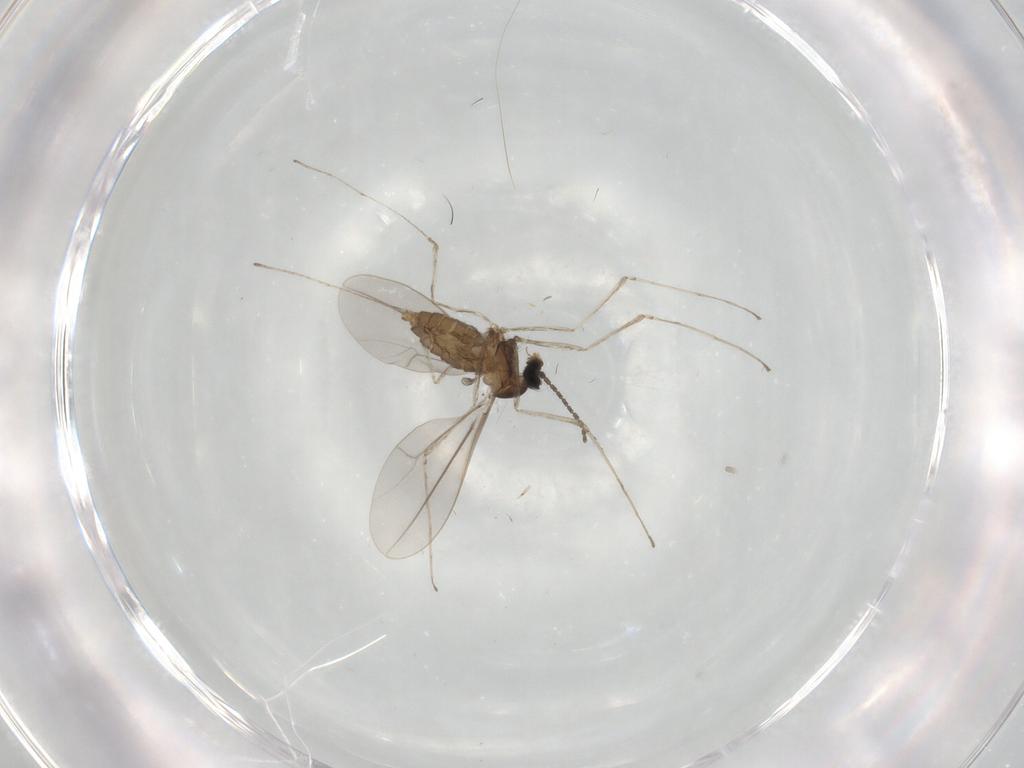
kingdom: Animalia
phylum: Arthropoda
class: Insecta
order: Diptera
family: Cecidomyiidae
